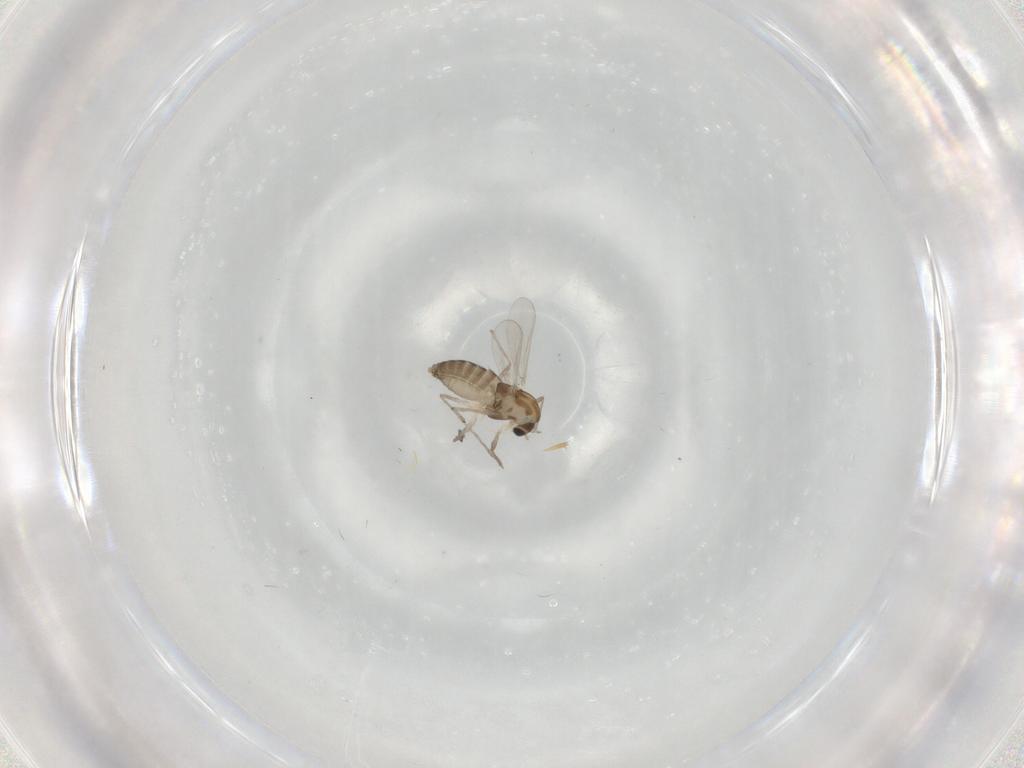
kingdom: Animalia
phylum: Arthropoda
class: Insecta
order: Diptera
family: Chironomidae
